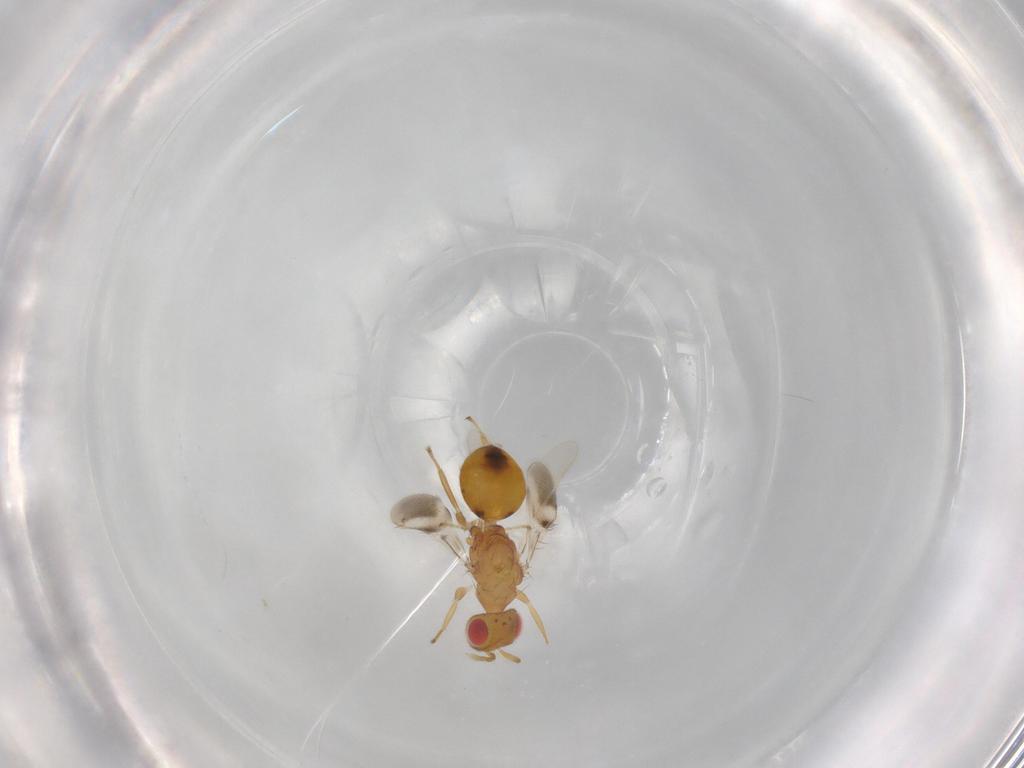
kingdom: Animalia
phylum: Arthropoda
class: Insecta
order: Hymenoptera
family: Eulophidae
